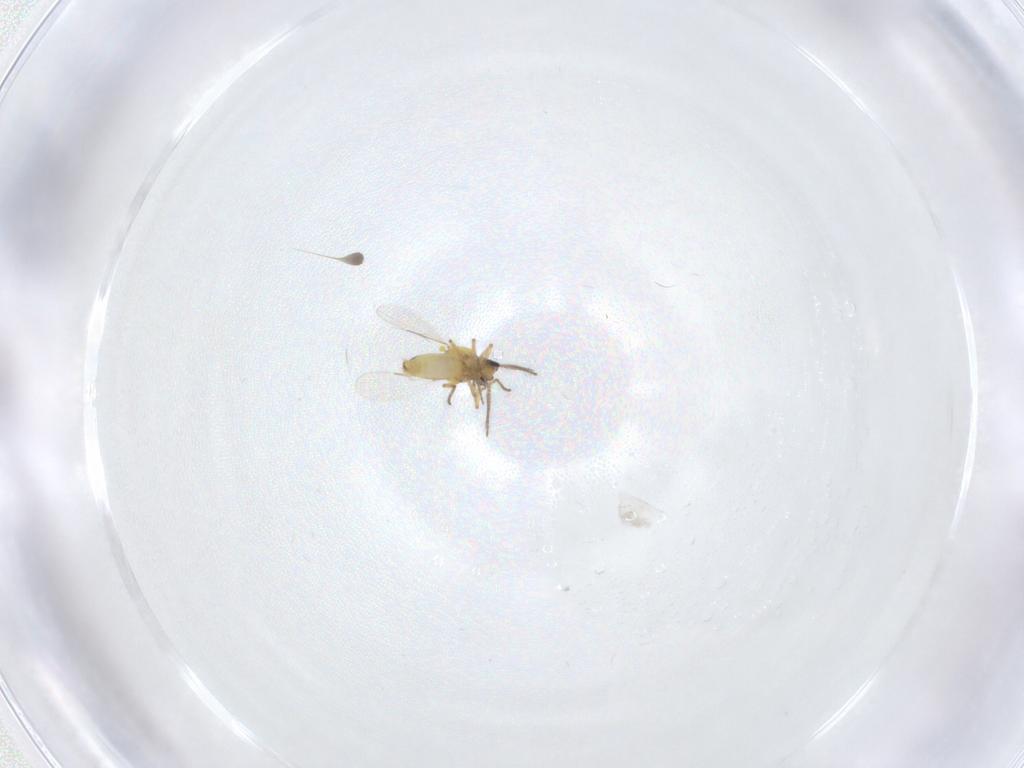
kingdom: Animalia
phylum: Arthropoda
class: Insecta
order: Diptera
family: Ceratopogonidae
